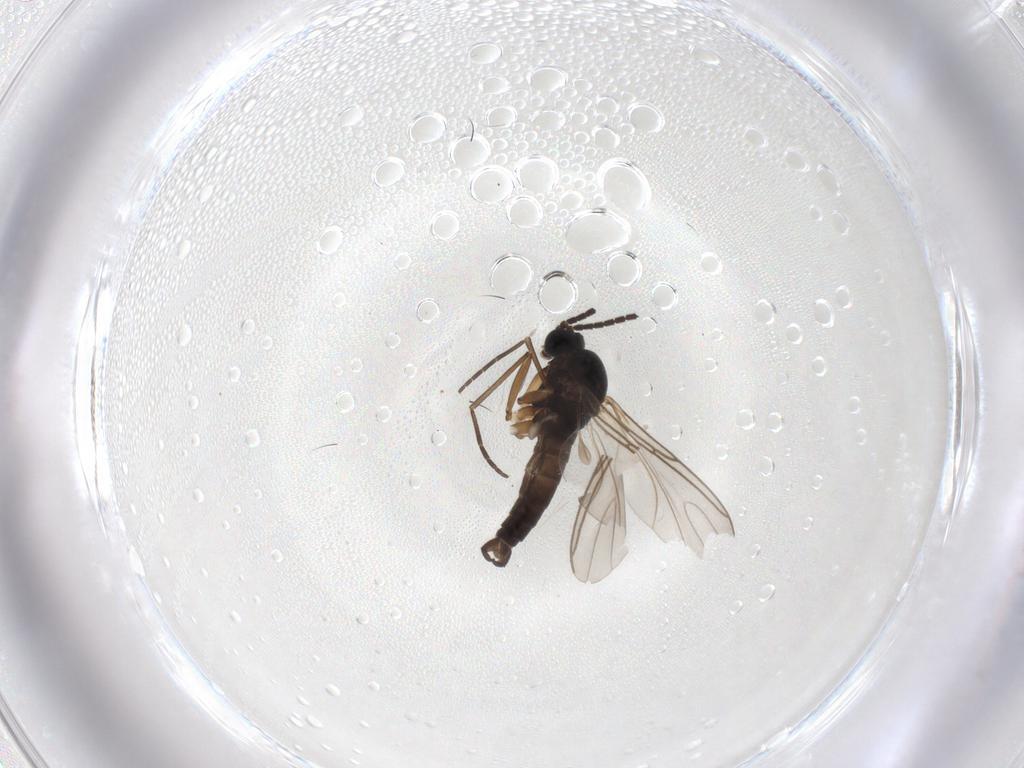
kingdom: Animalia
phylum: Arthropoda
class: Insecta
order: Diptera
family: Sciaridae
